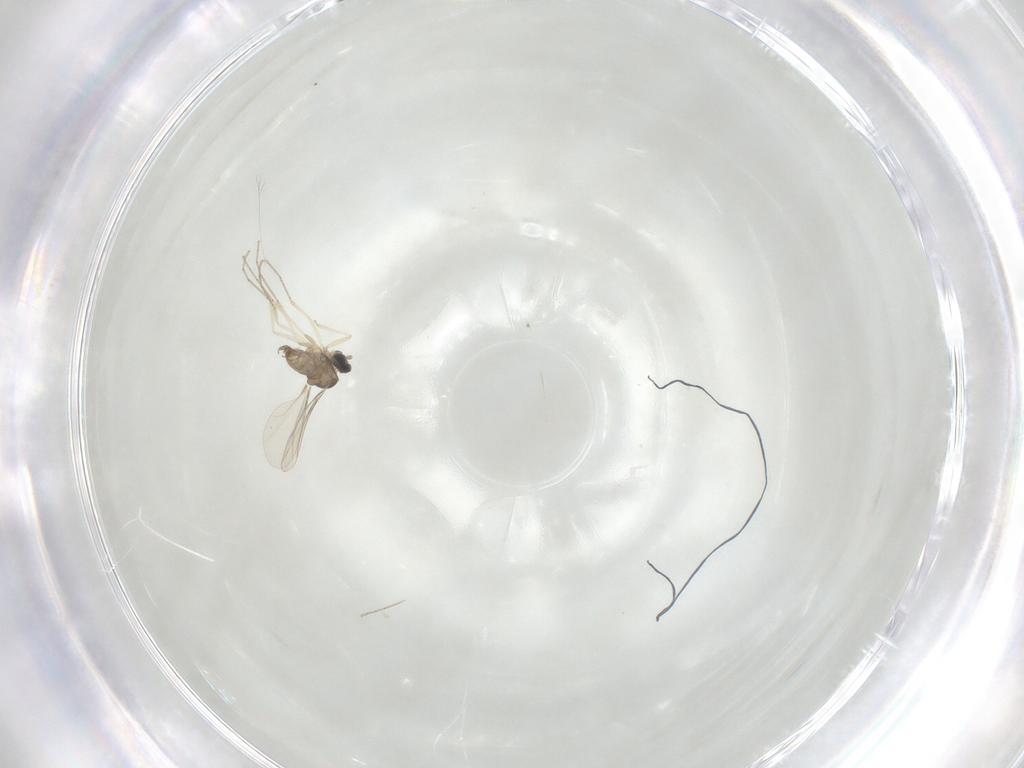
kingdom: Animalia
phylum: Arthropoda
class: Insecta
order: Diptera
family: Cecidomyiidae
